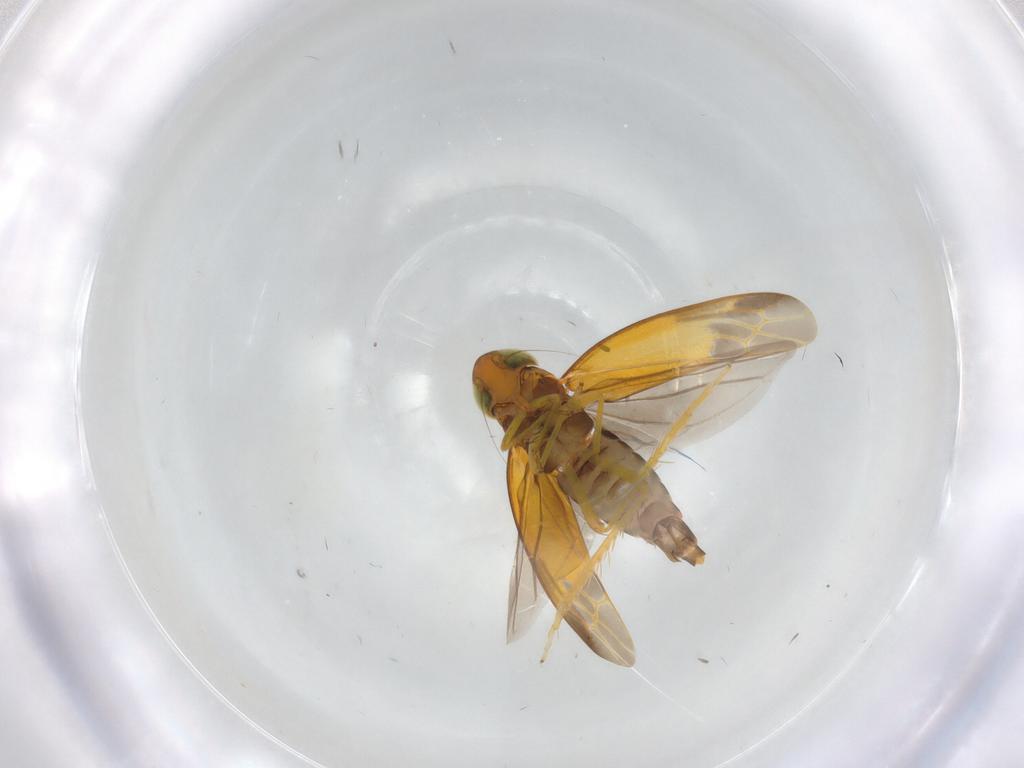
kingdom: Animalia
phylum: Arthropoda
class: Insecta
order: Hemiptera
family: Cicadellidae
